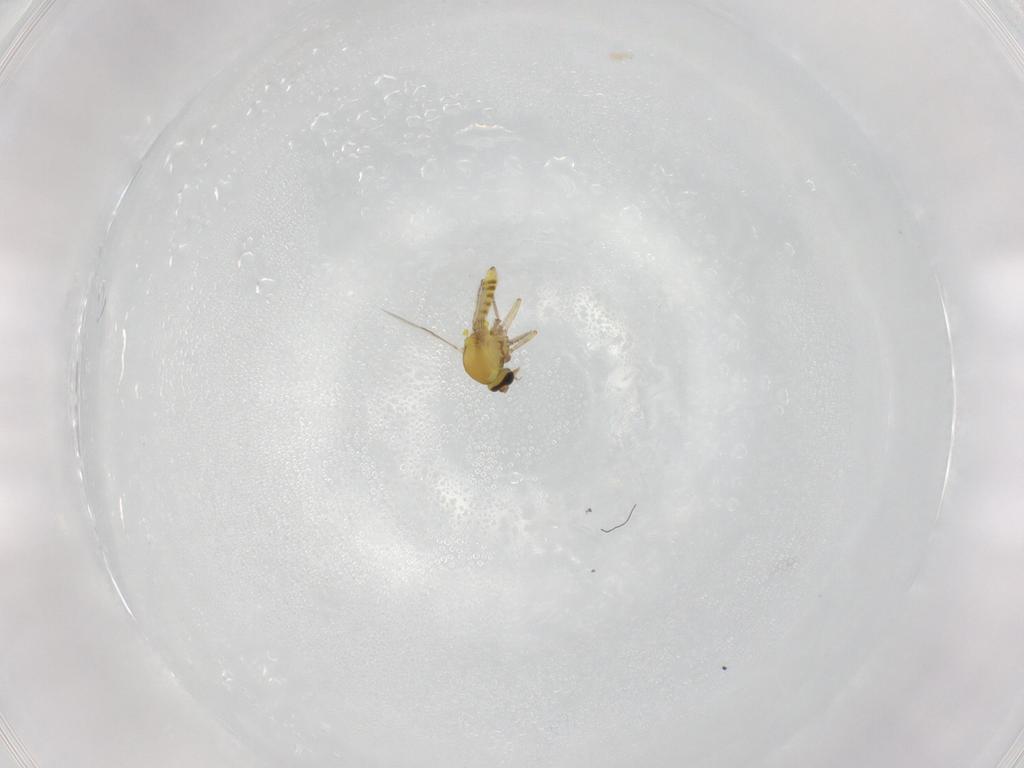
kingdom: Animalia
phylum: Arthropoda
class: Insecta
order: Diptera
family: Ceratopogonidae
